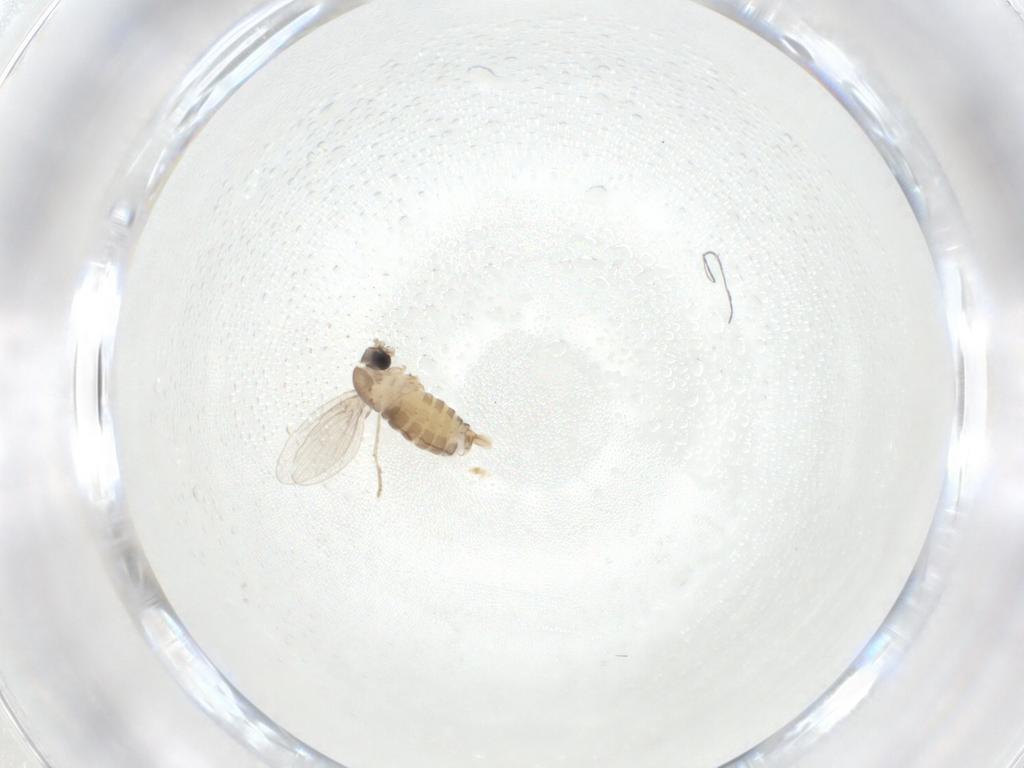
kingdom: Animalia
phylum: Arthropoda
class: Insecta
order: Diptera
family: Psychodidae
